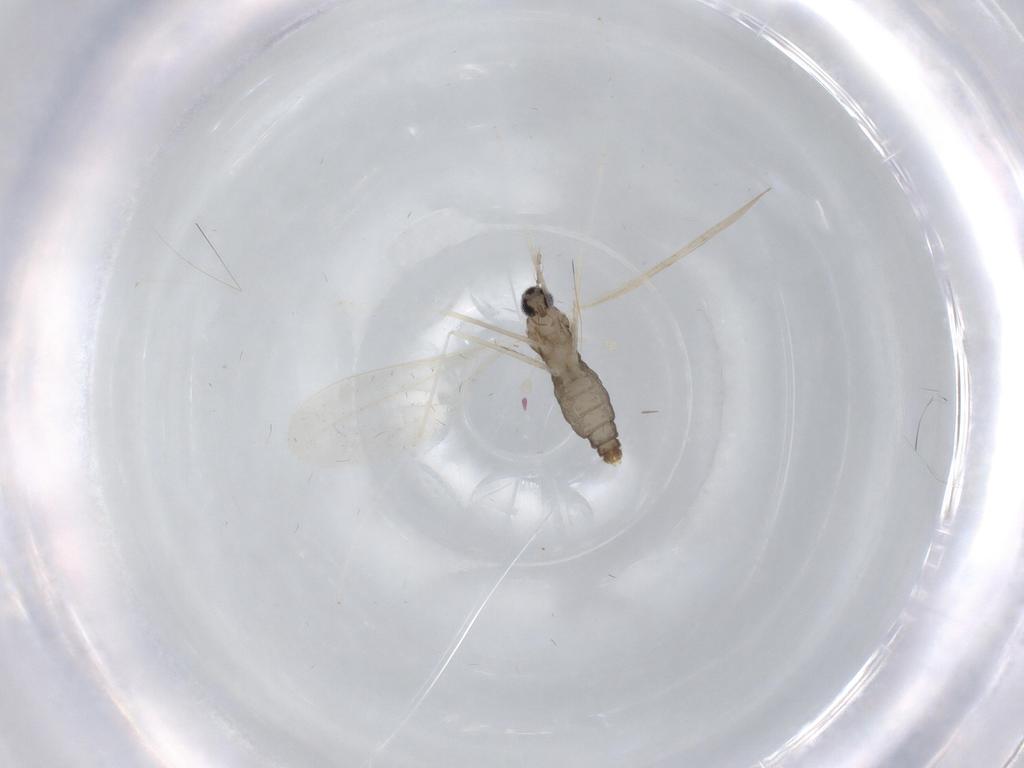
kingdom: Animalia
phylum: Arthropoda
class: Insecta
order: Diptera
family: Cecidomyiidae
